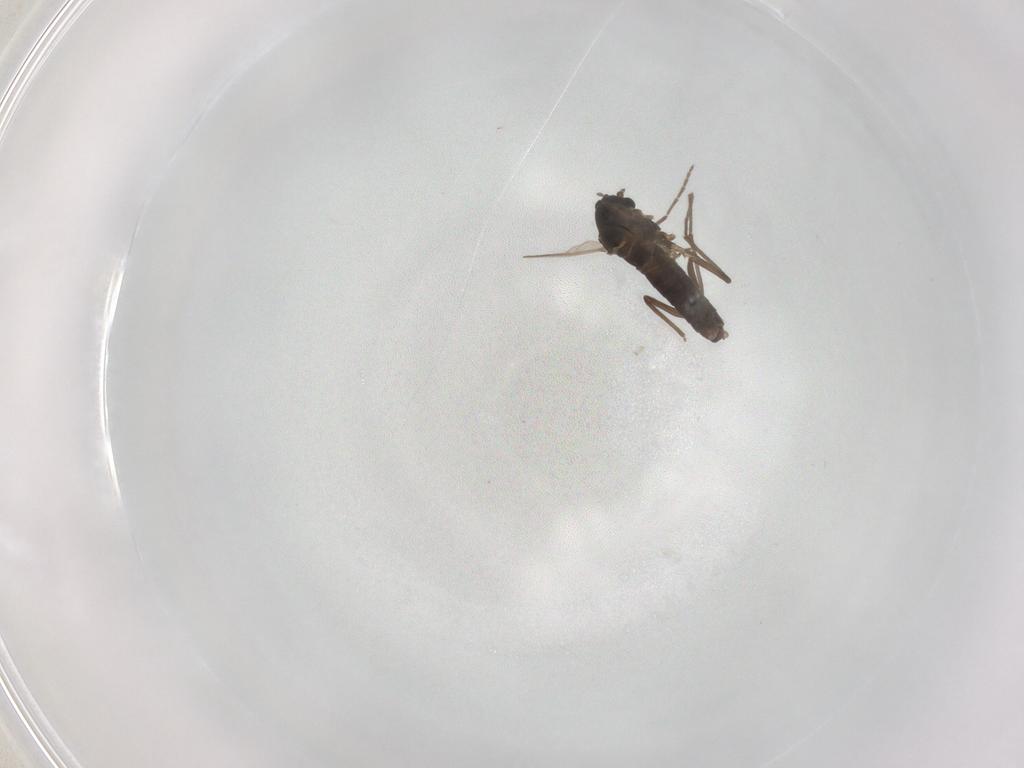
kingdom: Animalia
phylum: Arthropoda
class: Insecta
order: Diptera
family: Chironomidae
